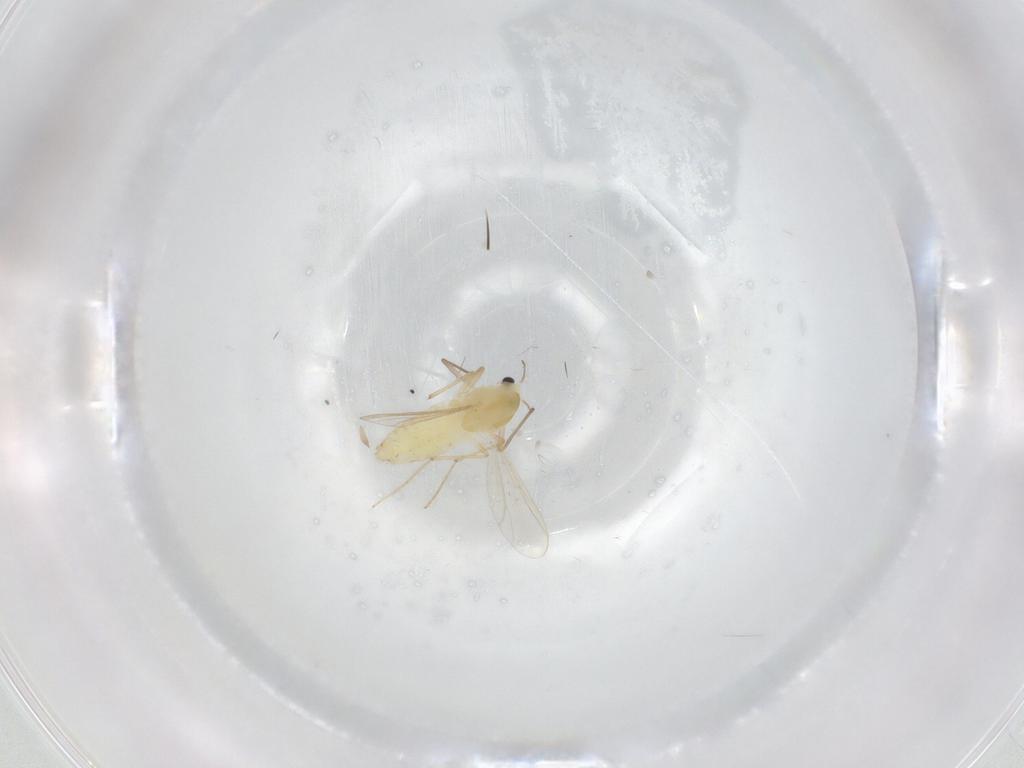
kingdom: Animalia
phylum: Arthropoda
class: Insecta
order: Diptera
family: Chironomidae
